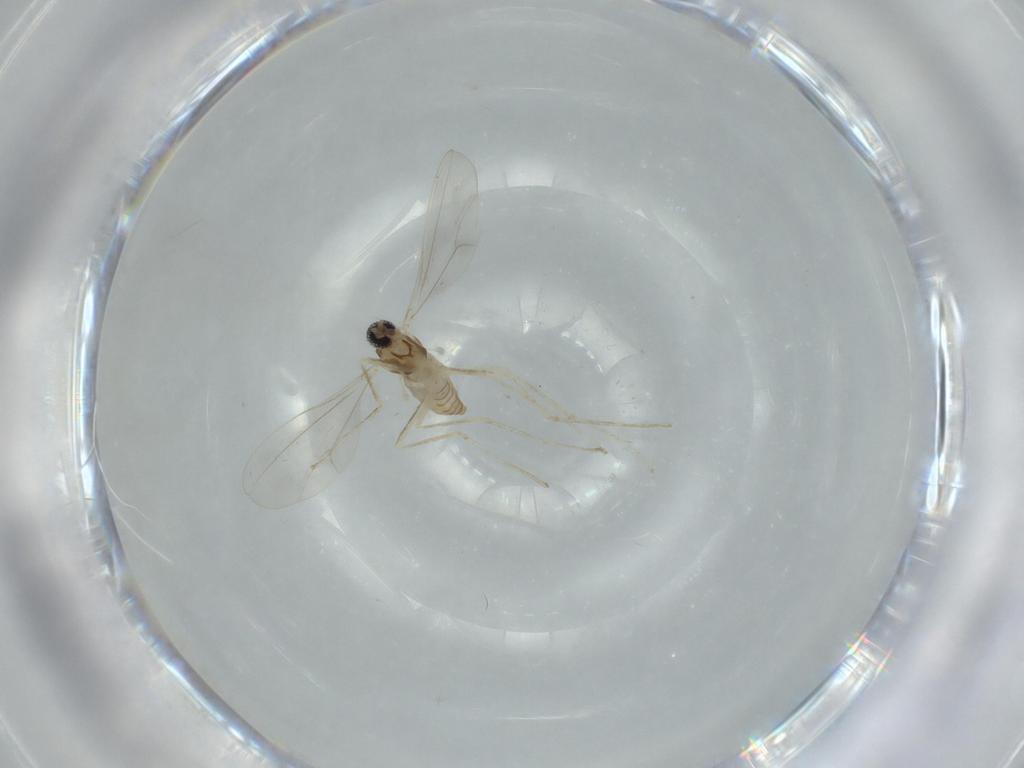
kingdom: Animalia
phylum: Arthropoda
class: Insecta
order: Diptera
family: Cecidomyiidae
